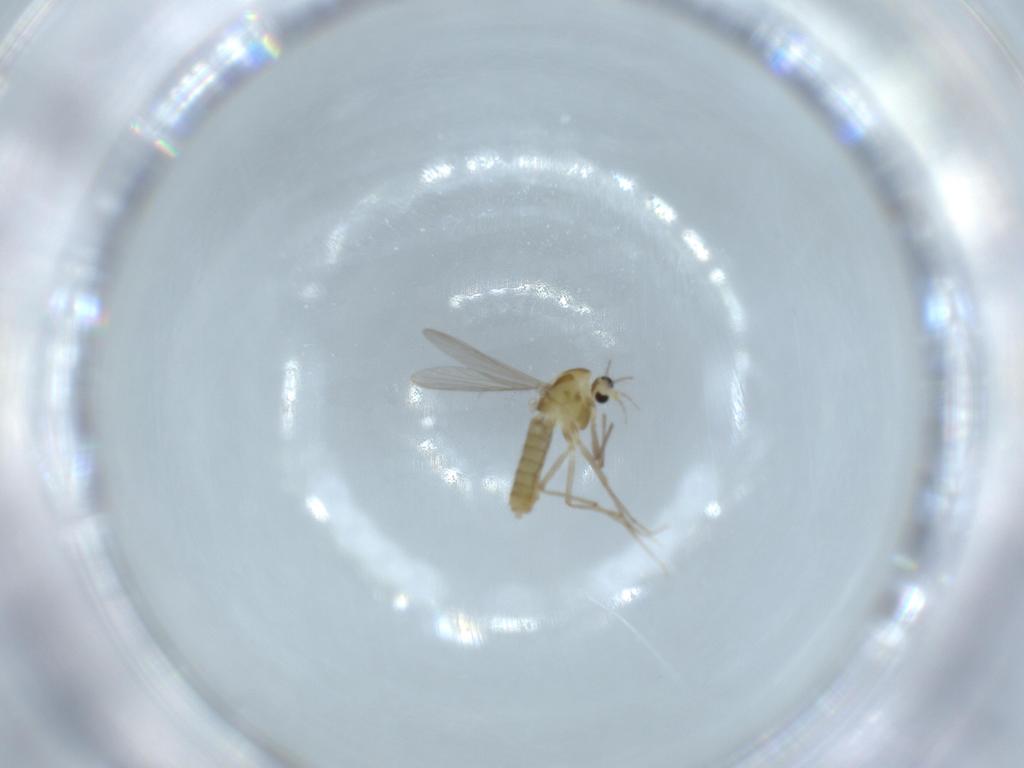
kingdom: Animalia
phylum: Arthropoda
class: Insecta
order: Diptera
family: Chironomidae
